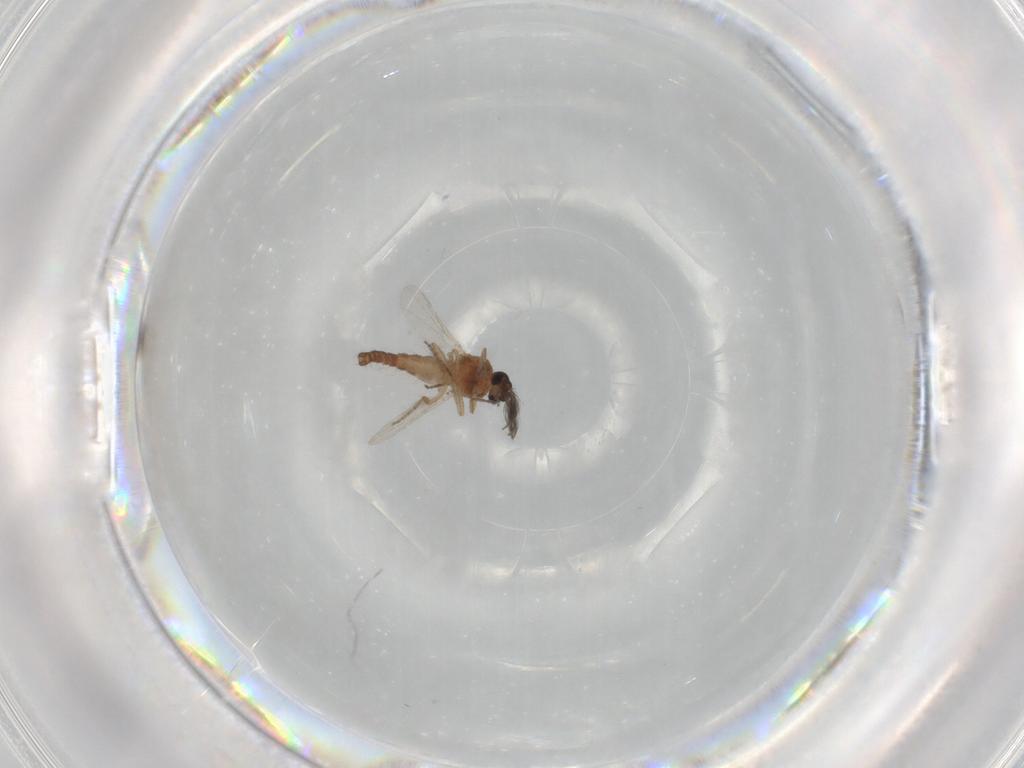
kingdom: Animalia
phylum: Arthropoda
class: Insecta
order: Diptera
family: Ceratopogonidae
